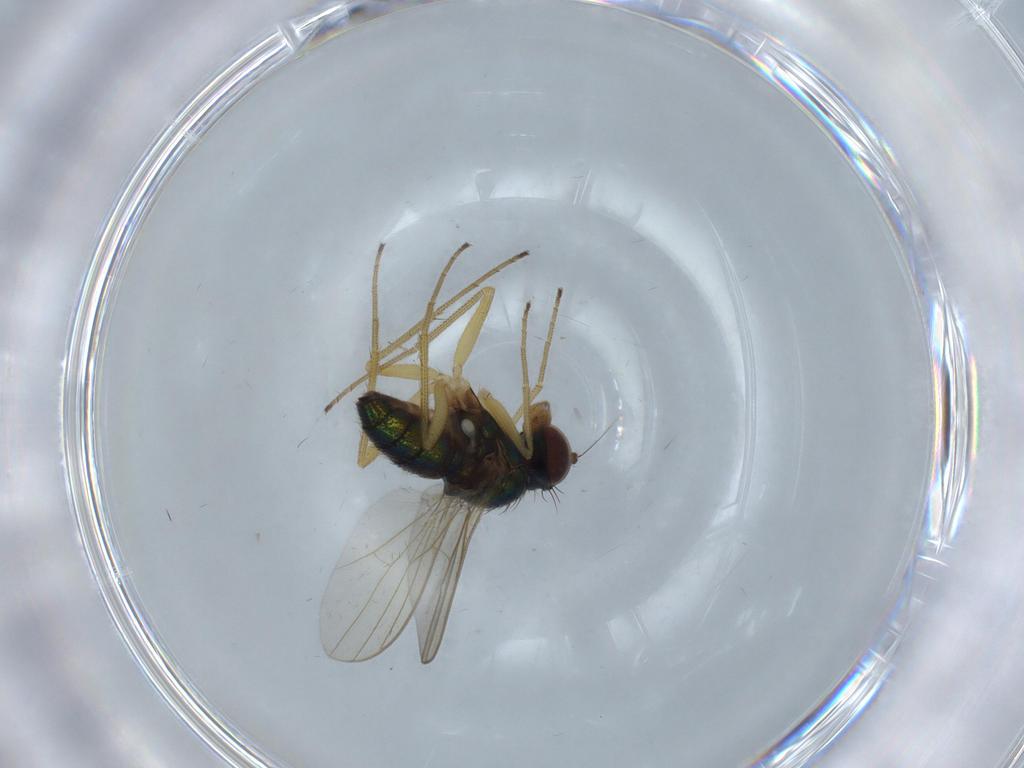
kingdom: Animalia
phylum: Arthropoda
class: Insecta
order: Diptera
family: Dolichopodidae
